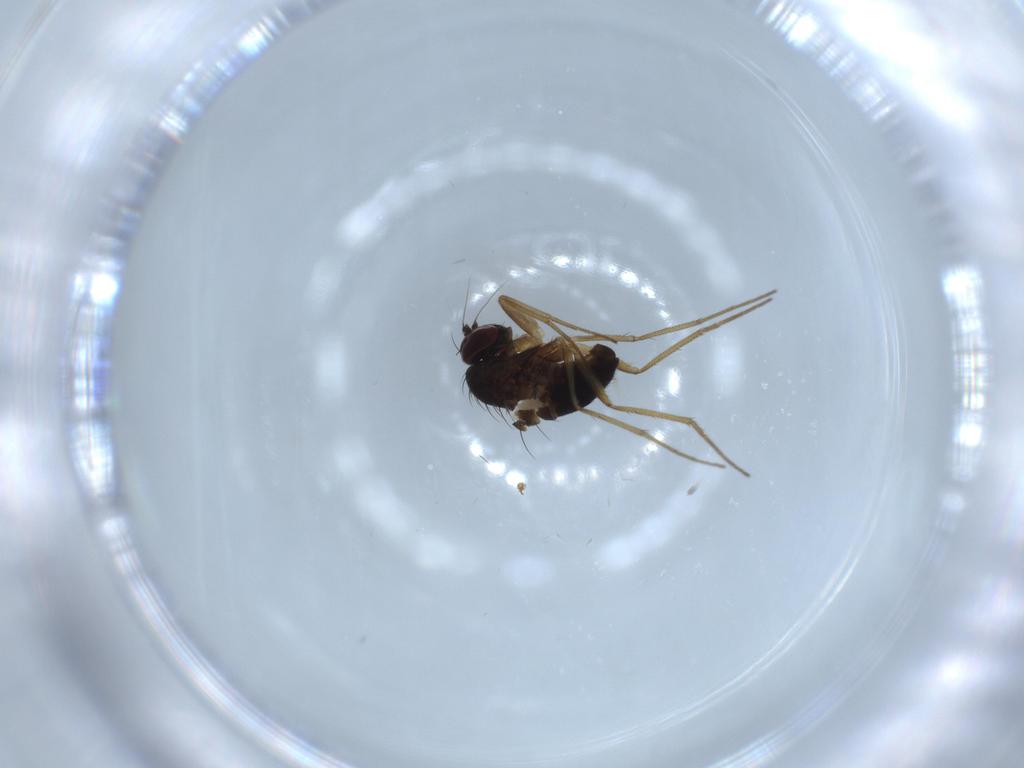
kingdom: Animalia
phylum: Arthropoda
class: Insecta
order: Diptera
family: Dolichopodidae
